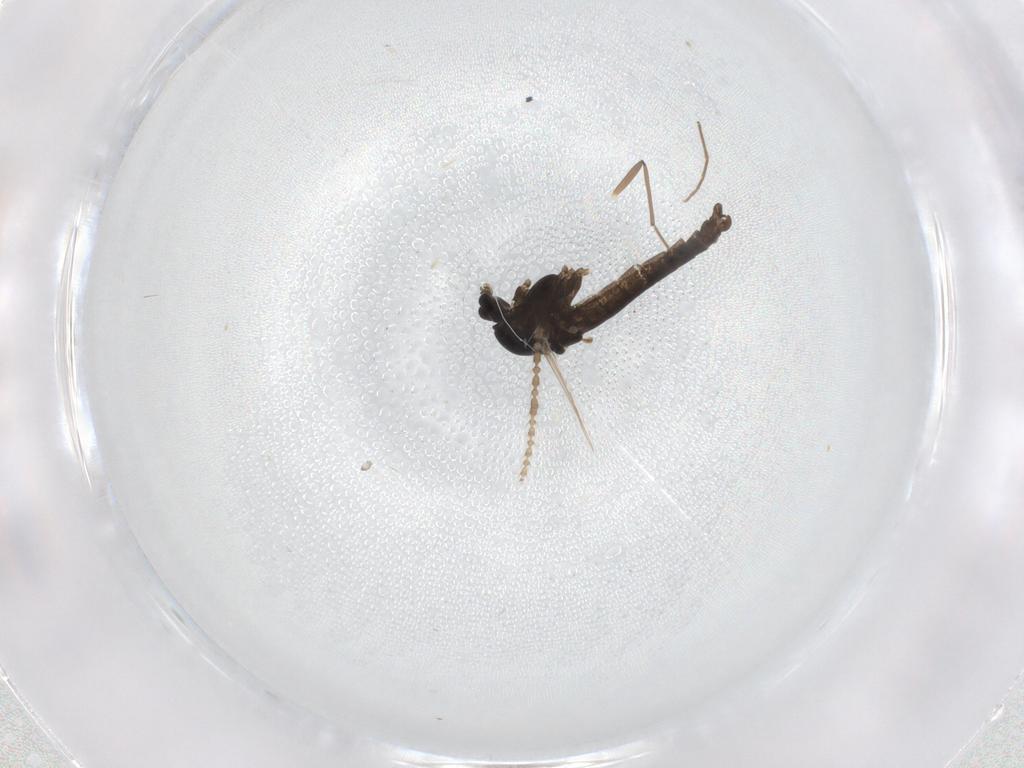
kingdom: Animalia
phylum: Arthropoda
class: Insecta
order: Diptera
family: Chironomidae
